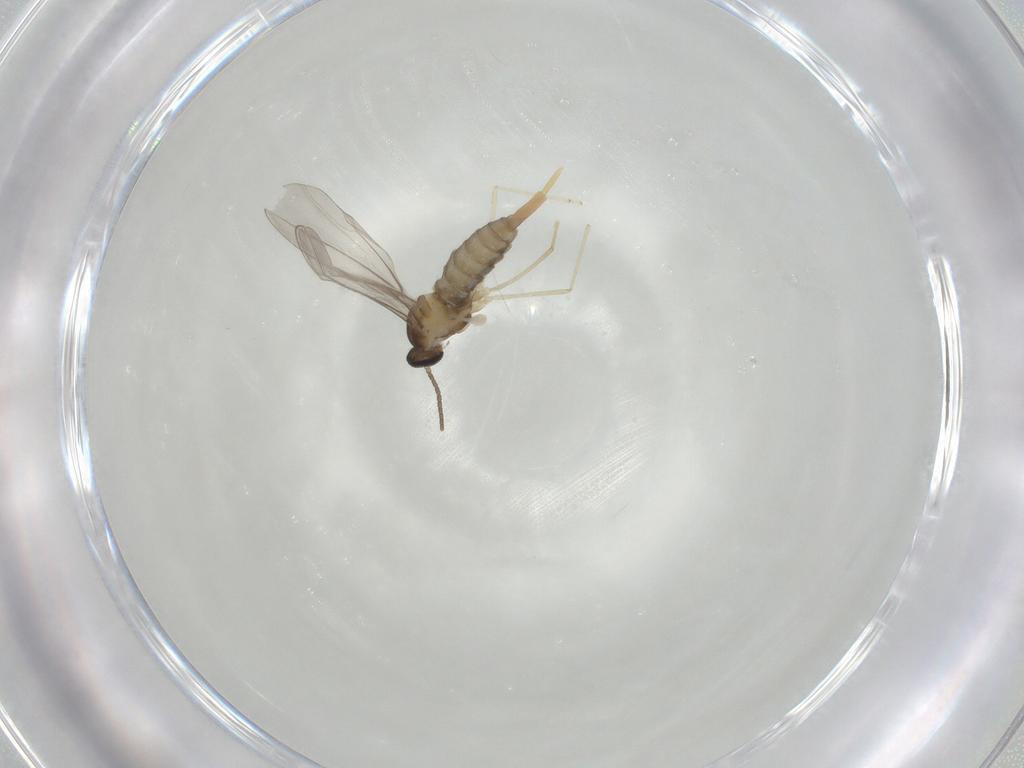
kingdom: Animalia
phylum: Arthropoda
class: Insecta
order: Diptera
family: Cecidomyiidae
